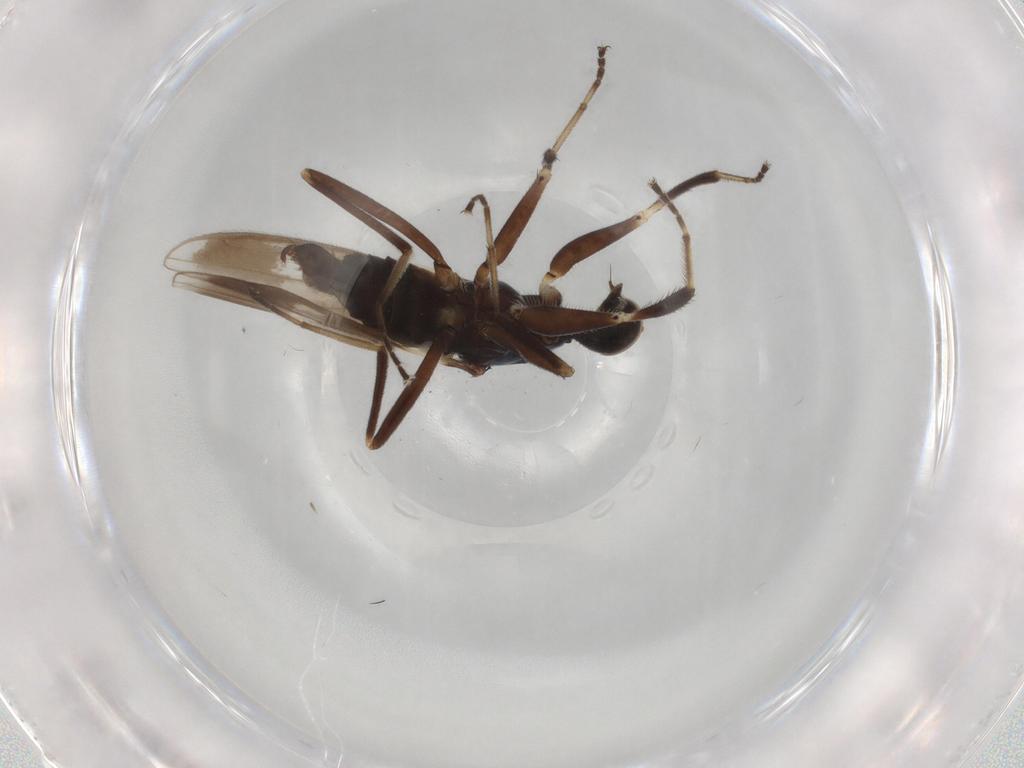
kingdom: Animalia
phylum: Arthropoda
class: Insecta
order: Diptera
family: Hybotidae
